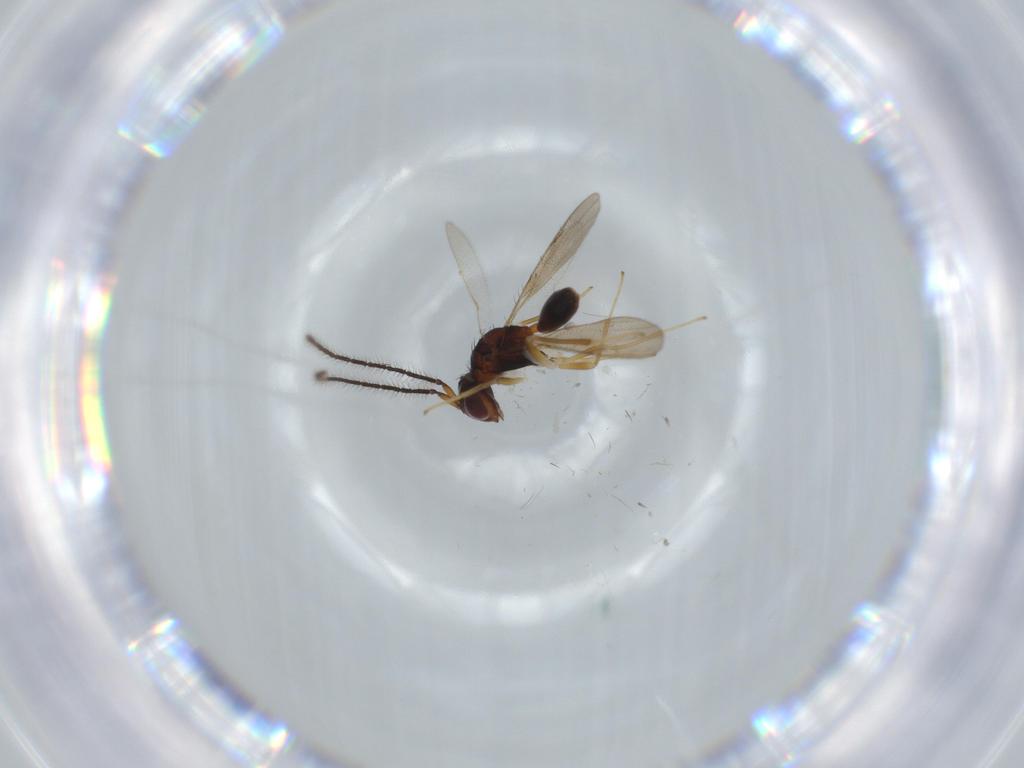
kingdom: Animalia
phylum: Arthropoda
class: Insecta
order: Hymenoptera
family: Diparidae
